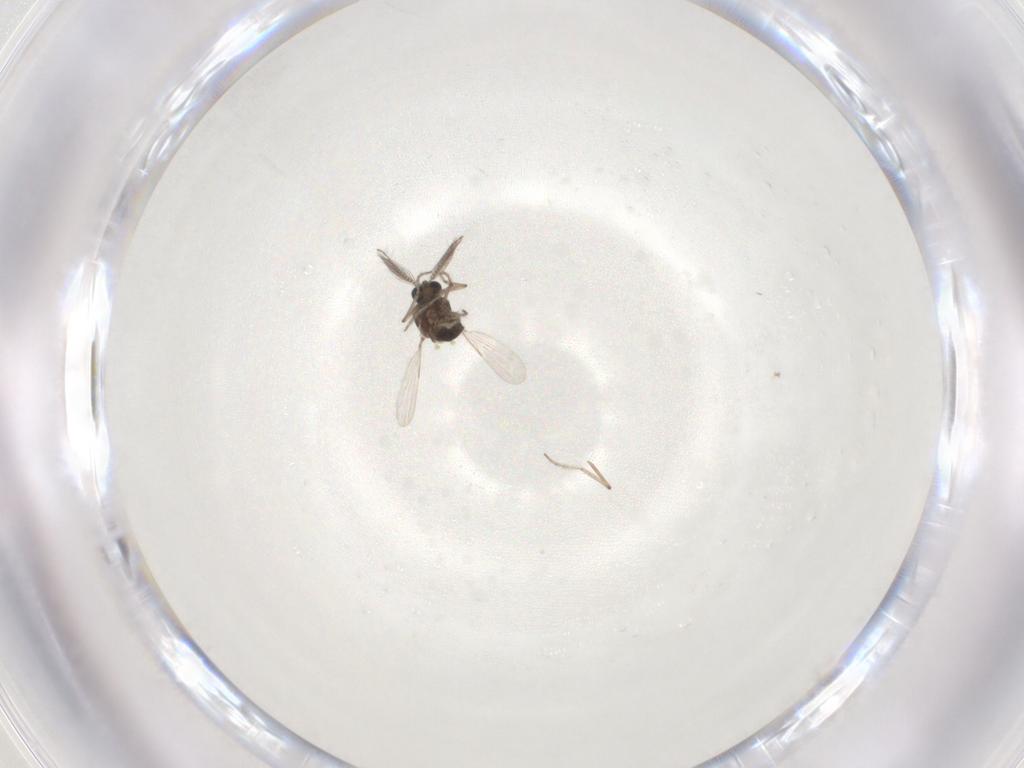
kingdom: Animalia
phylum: Arthropoda
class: Insecta
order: Diptera
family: Ceratopogonidae
